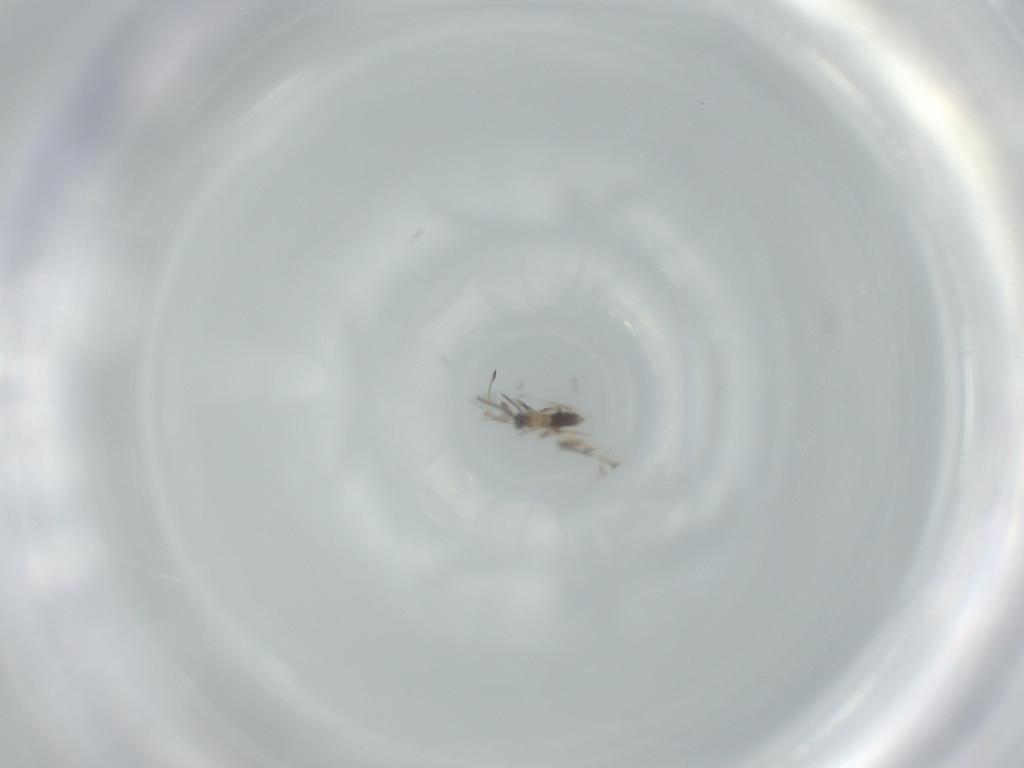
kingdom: Animalia
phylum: Arthropoda
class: Insecta
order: Hymenoptera
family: Mymaridae
